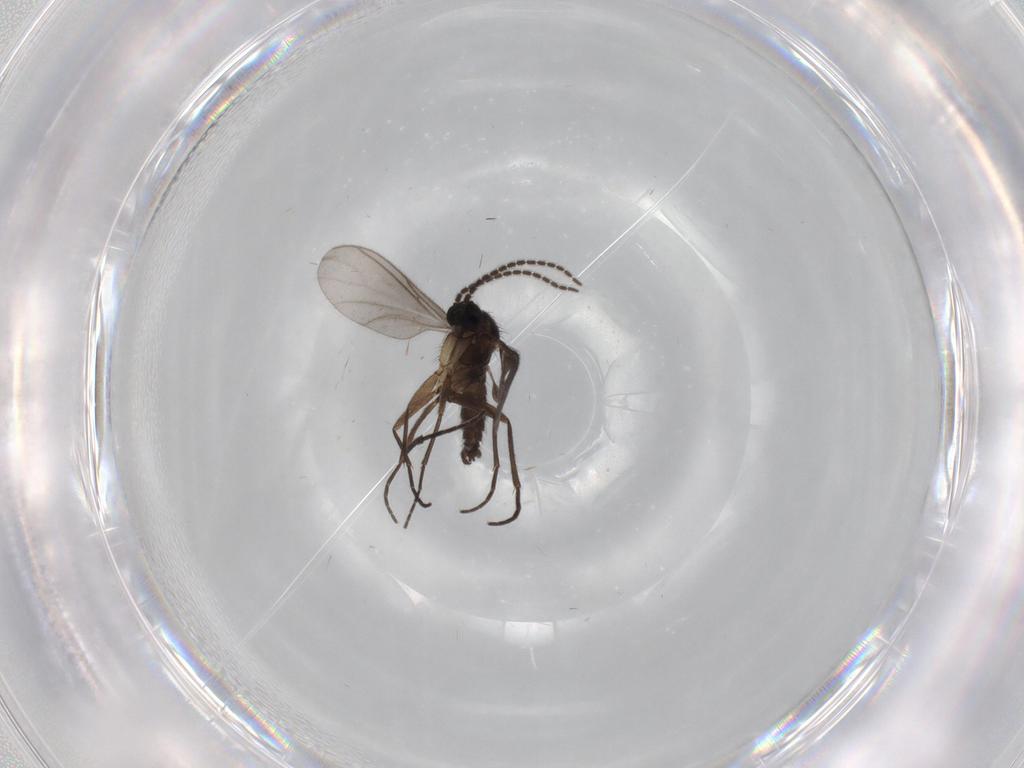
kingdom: Animalia
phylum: Arthropoda
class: Insecta
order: Diptera
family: Sciaridae
